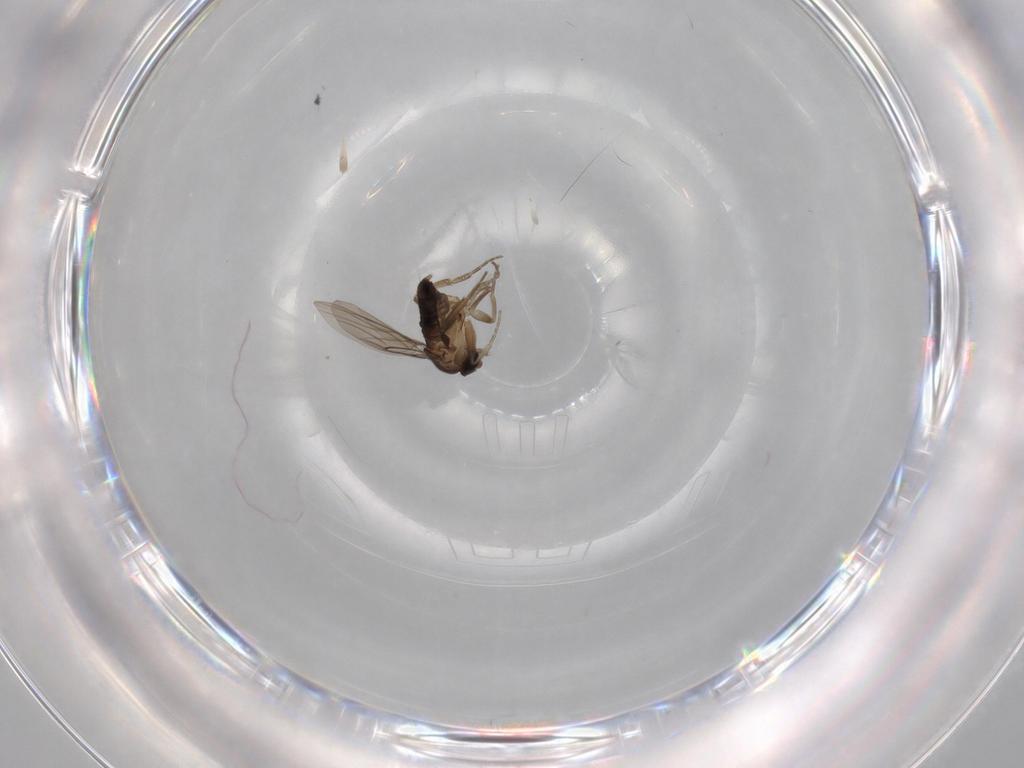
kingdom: Animalia
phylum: Arthropoda
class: Insecta
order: Diptera
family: Phoridae
